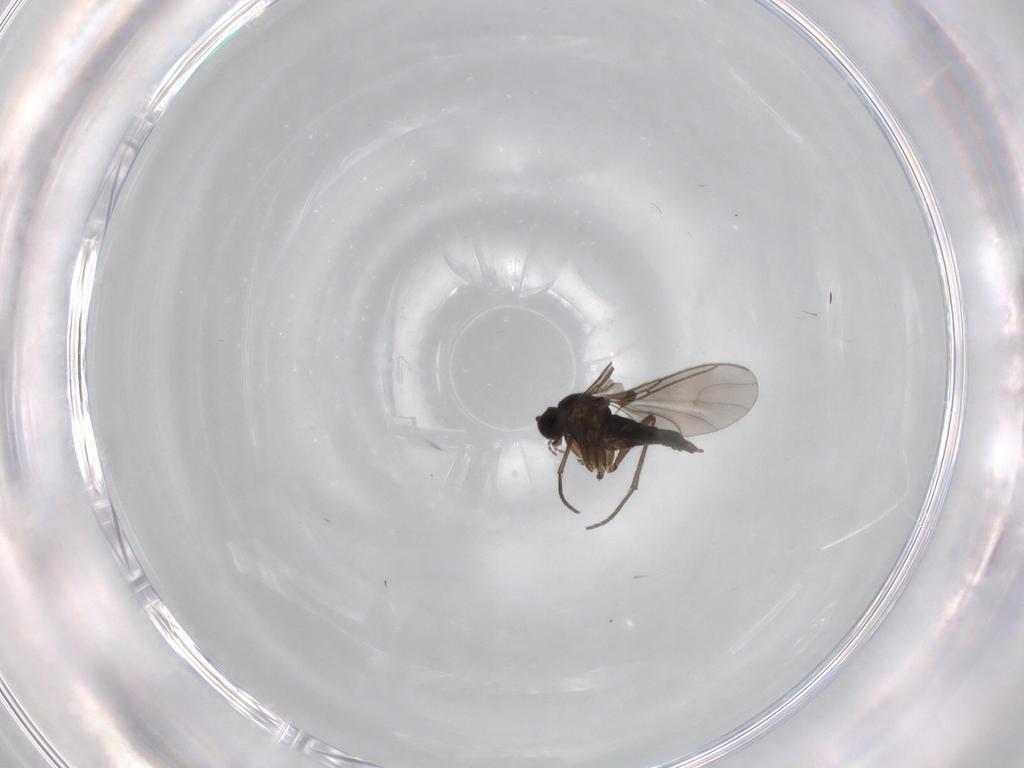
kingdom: Animalia
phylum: Arthropoda
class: Insecta
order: Diptera
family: Sciaridae
